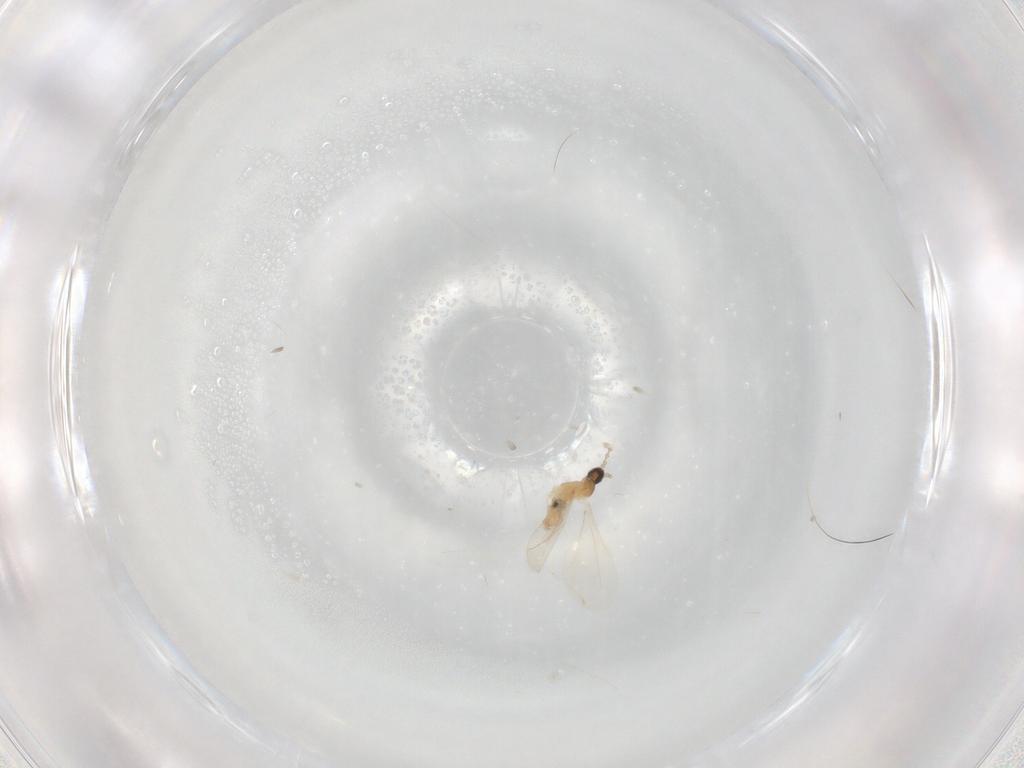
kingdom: Animalia
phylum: Arthropoda
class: Insecta
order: Diptera
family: Cecidomyiidae
